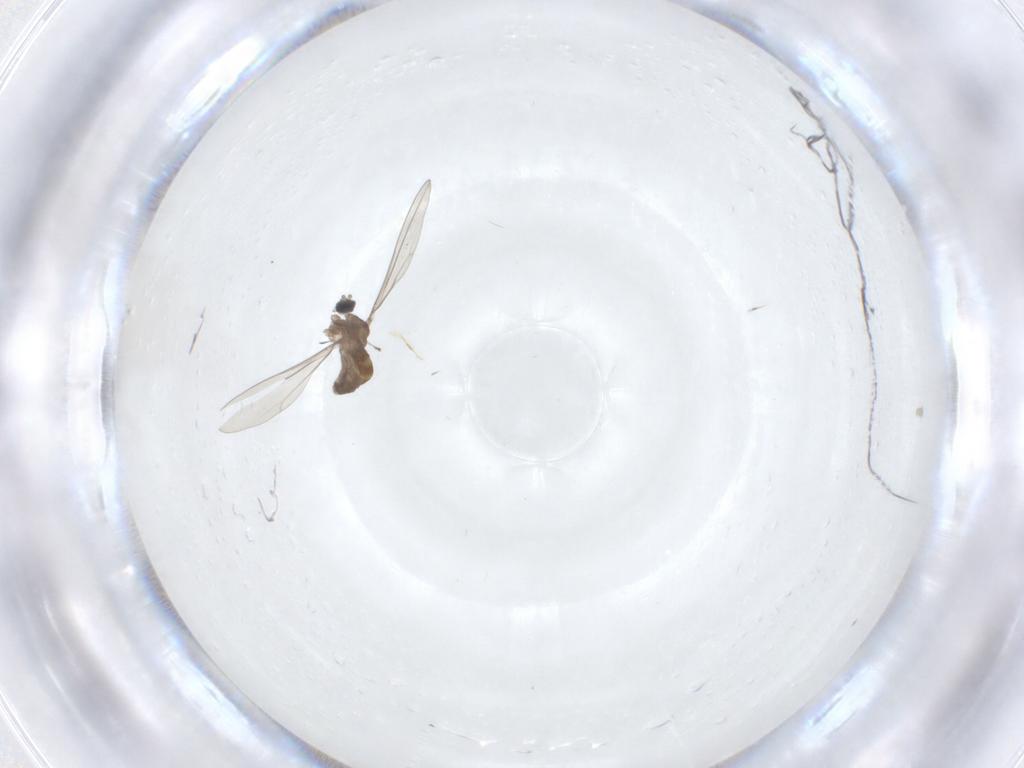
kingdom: Animalia
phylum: Arthropoda
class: Insecta
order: Diptera
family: Cecidomyiidae
